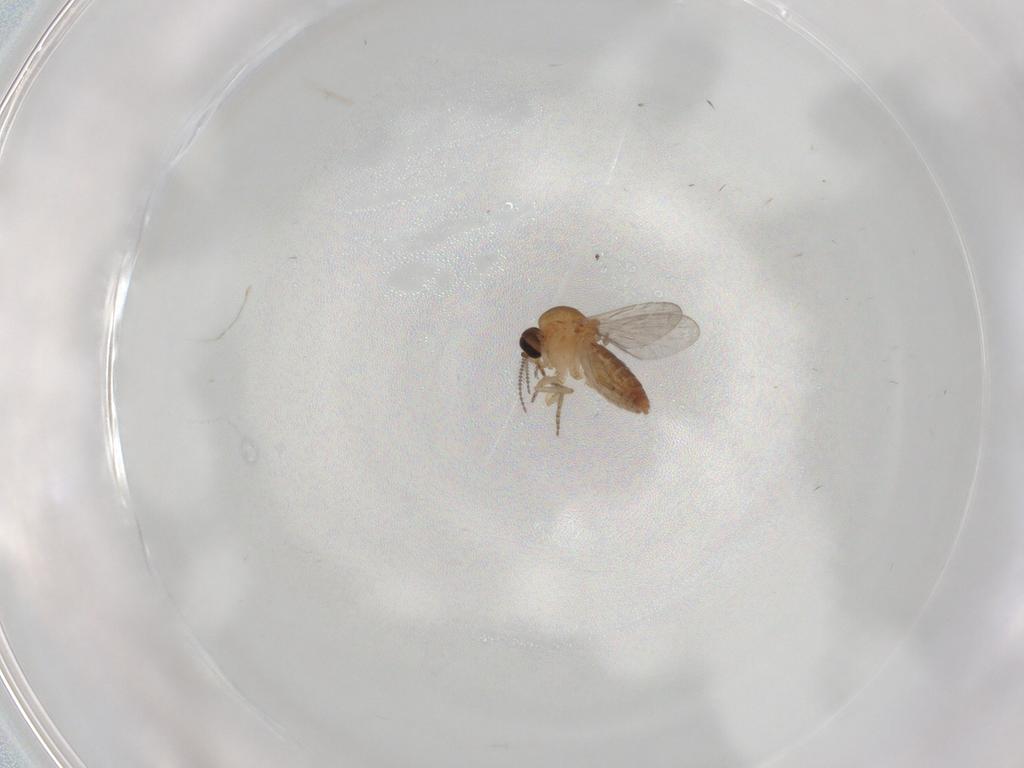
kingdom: Animalia
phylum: Arthropoda
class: Insecta
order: Diptera
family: Ceratopogonidae
